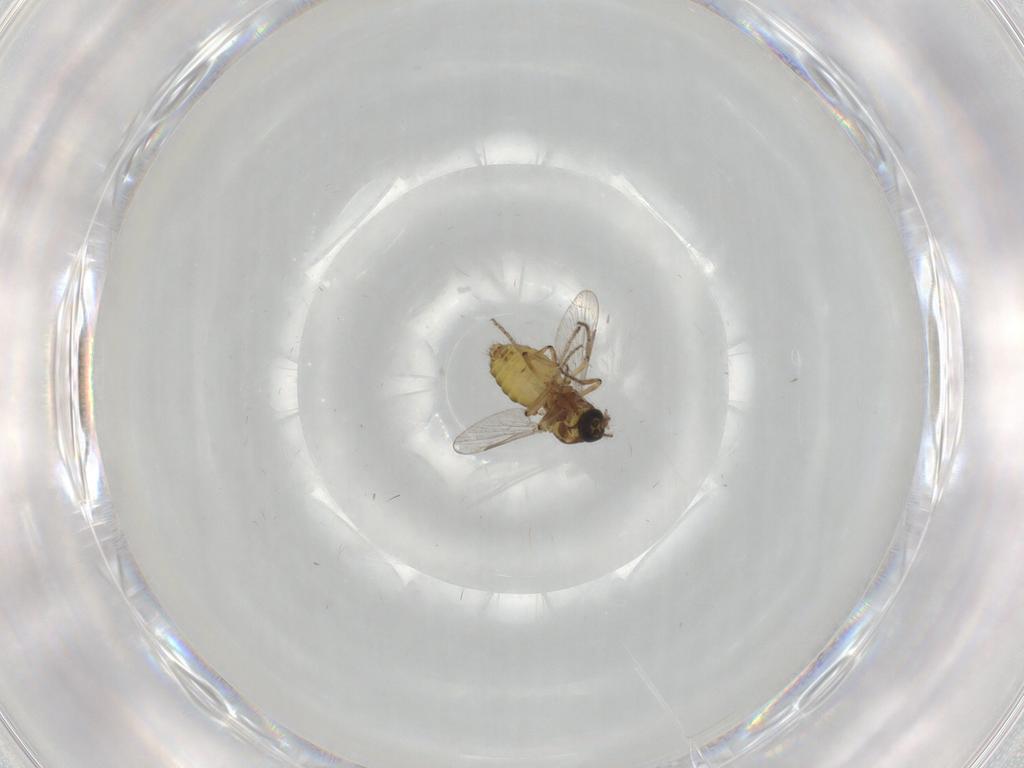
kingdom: Animalia
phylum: Arthropoda
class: Insecta
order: Diptera
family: Ceratopogonidae
